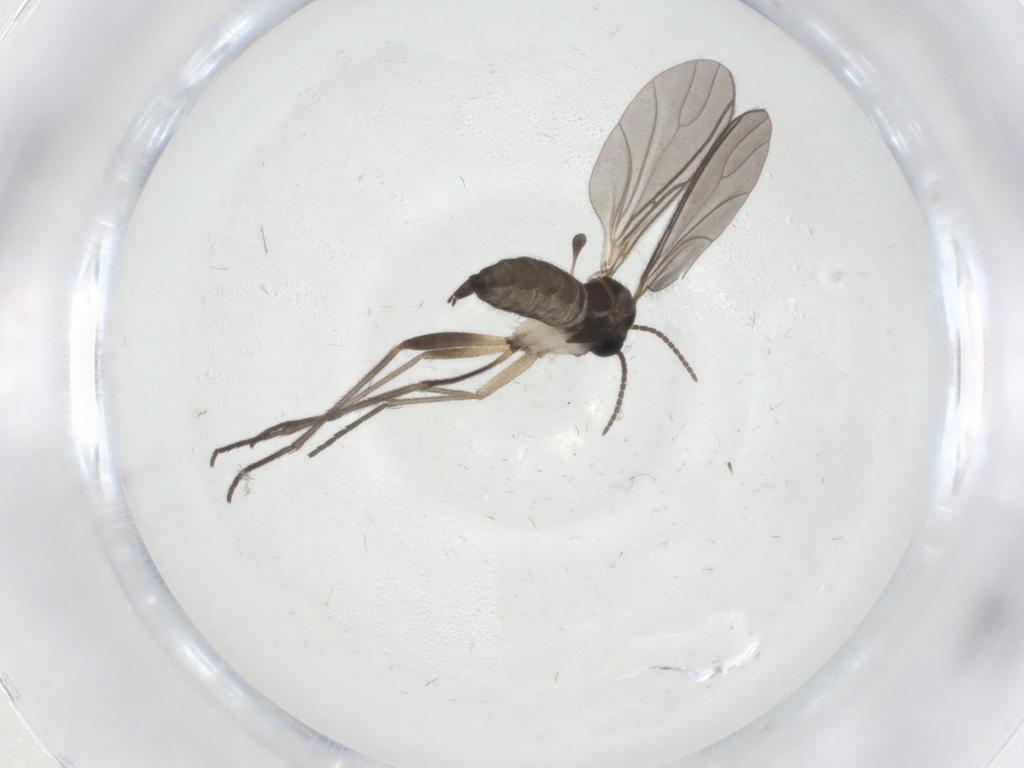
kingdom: Animalia
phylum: Arthropoda
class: Insecta
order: Diptera
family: Sciaridae
